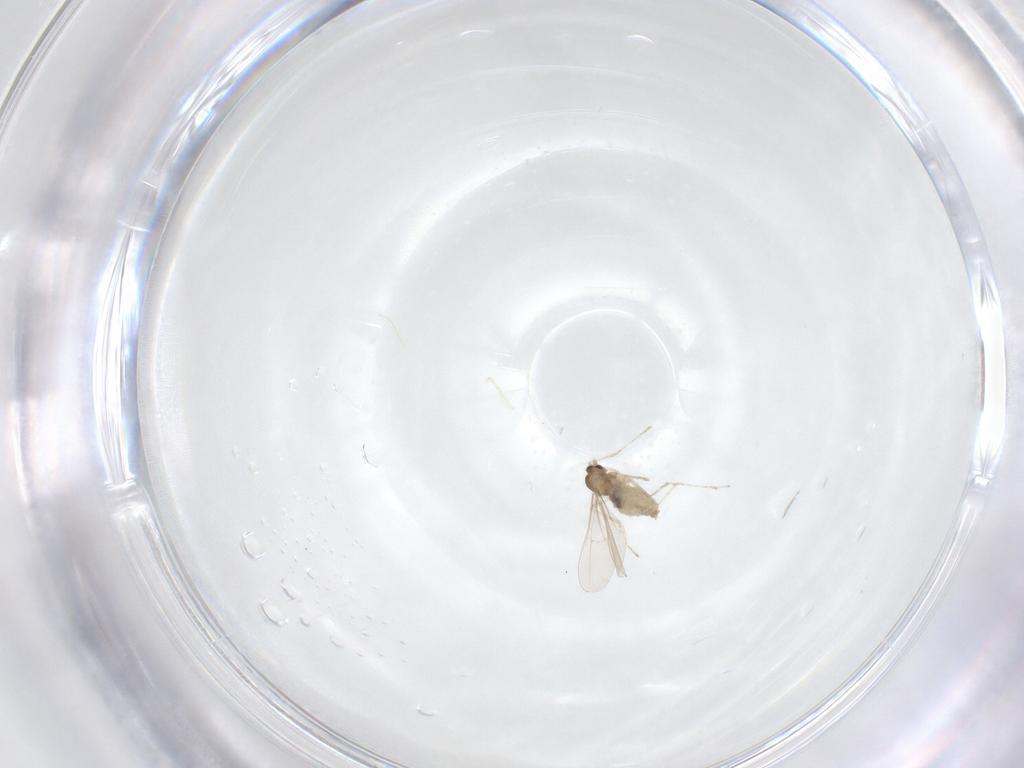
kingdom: Animalia
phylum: Arthropoda
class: Insecta
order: Diptera
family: Cecidomyiidae
